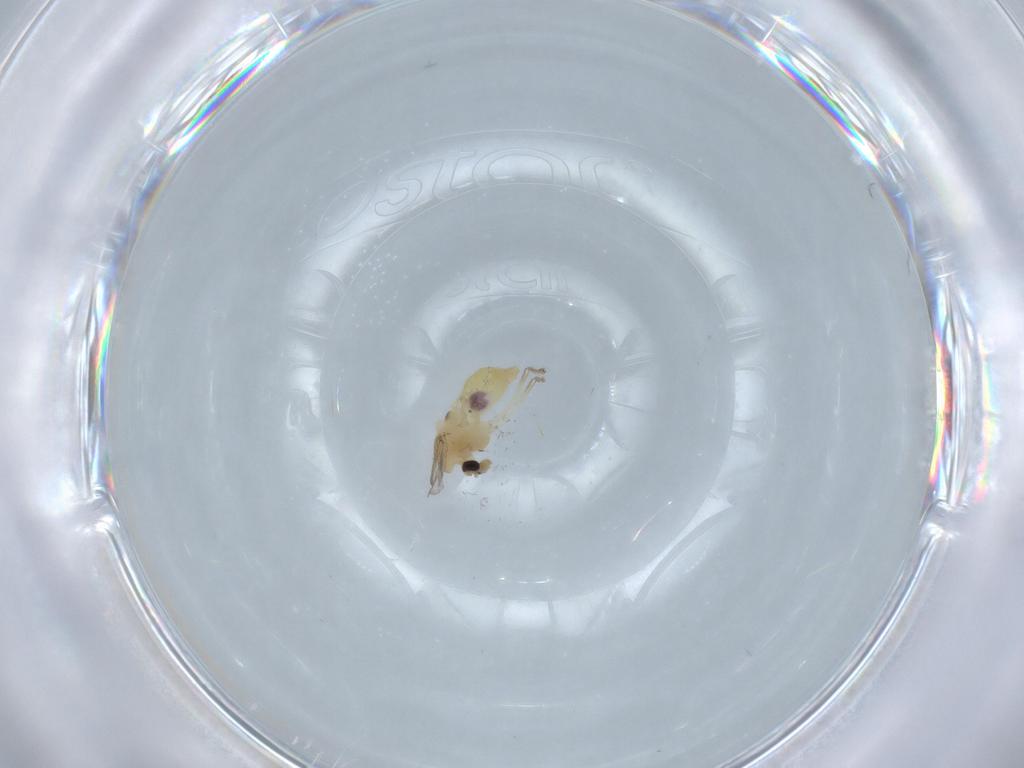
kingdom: Animalia
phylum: Arthropoda
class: Insecta
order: Diptera
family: Chironomidae
